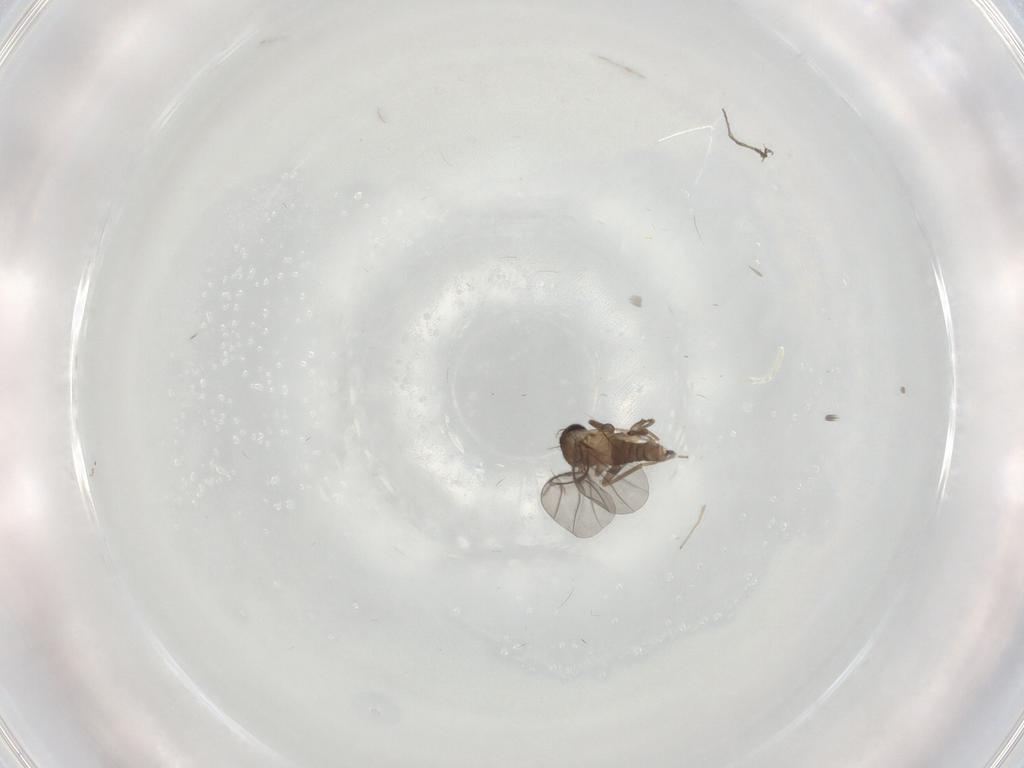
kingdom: Animalia
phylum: Arthropoda
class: Insecta
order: Diptera
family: Cecidomyiidae
